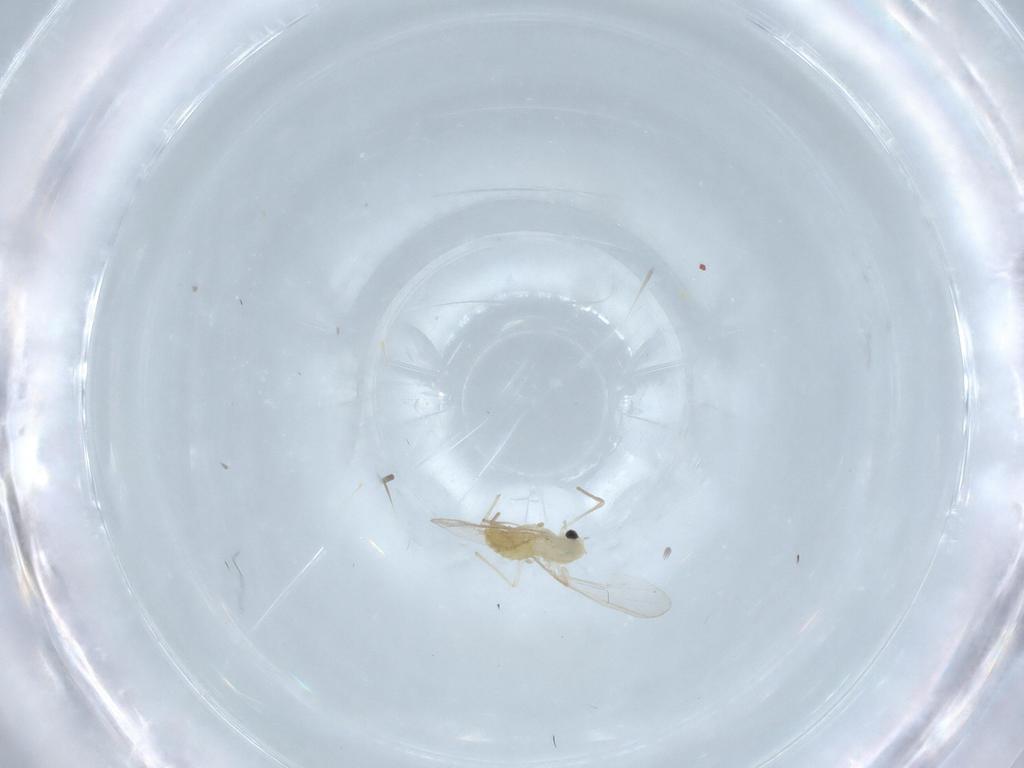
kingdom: Animalia
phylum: Arthropoda
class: Insecta
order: Diptera
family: Chironomidae
